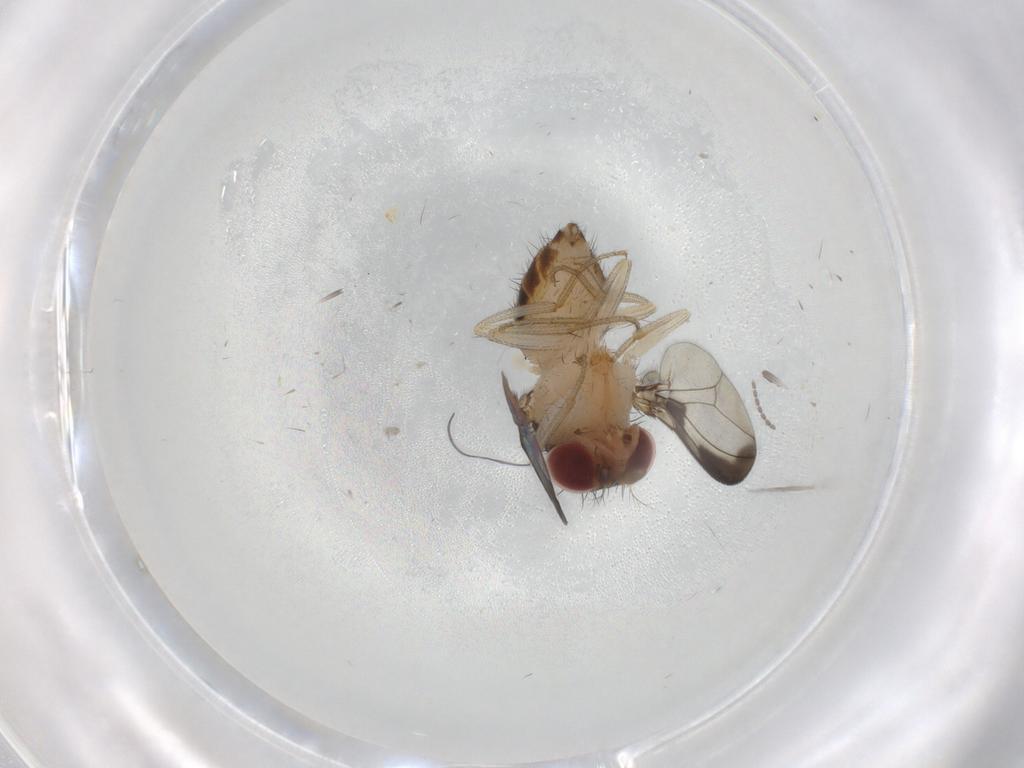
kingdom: Animalia
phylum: Arthropoda
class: Insecta
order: Diptera
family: Drosophilidae
